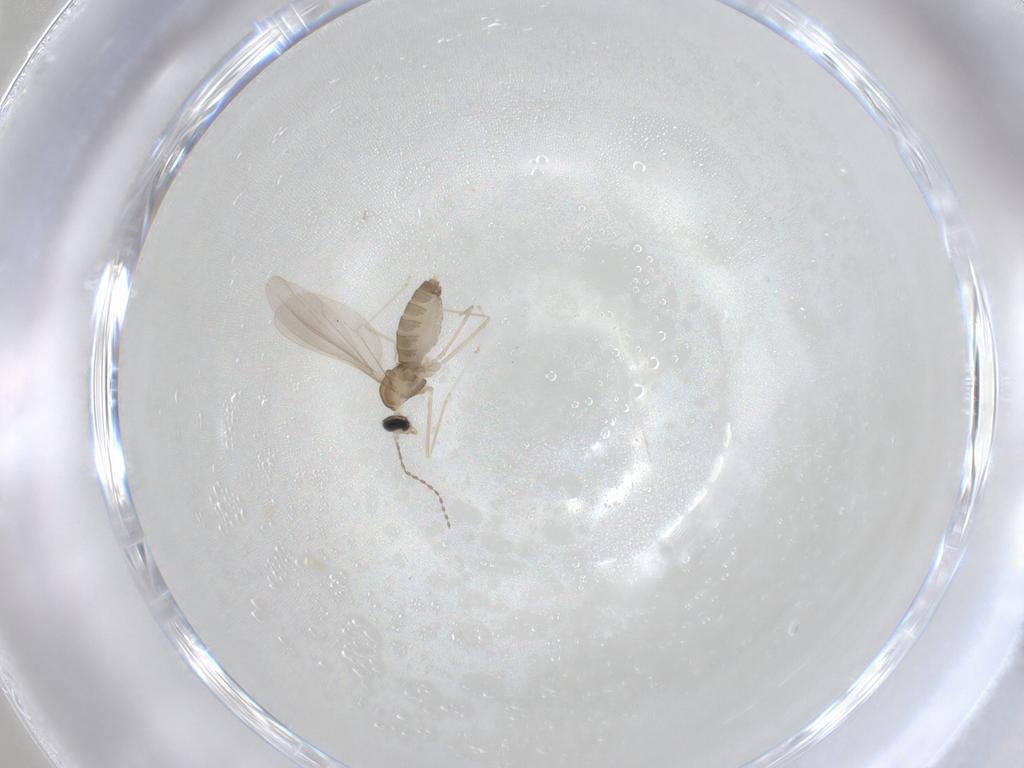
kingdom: Animalia
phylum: Arthropoda
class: Insecta
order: Diptera
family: Cecidomyiidae
